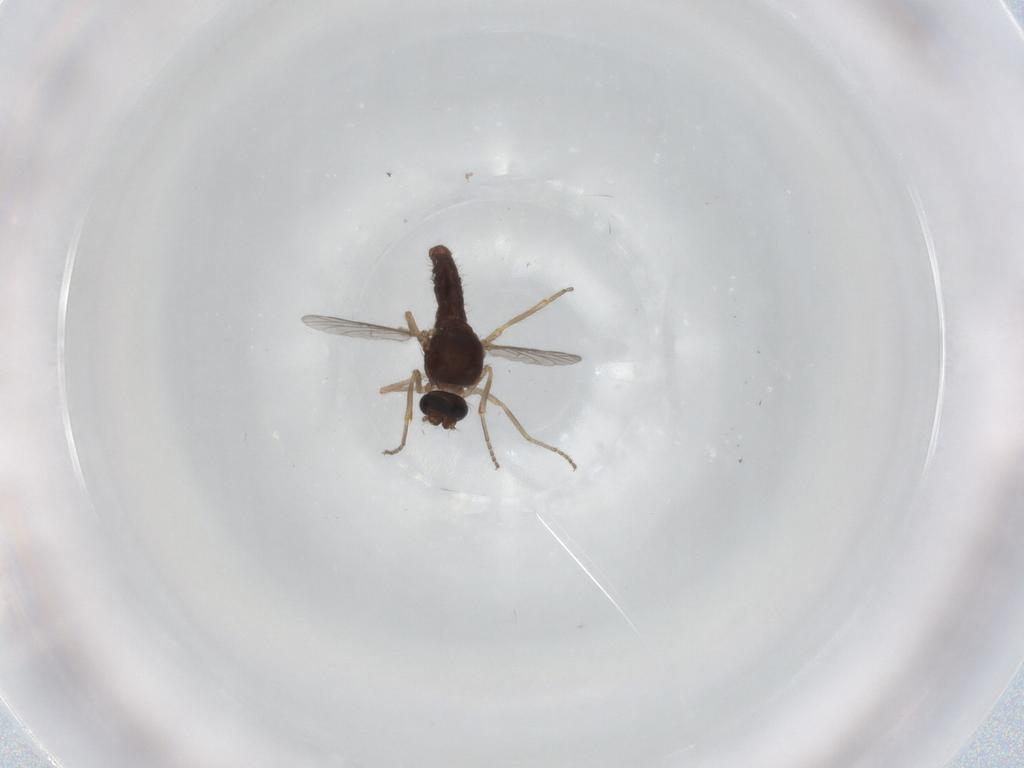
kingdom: Animalia
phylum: Arthropoda
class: Insecta
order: Diptera
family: Ceratopogonidae
